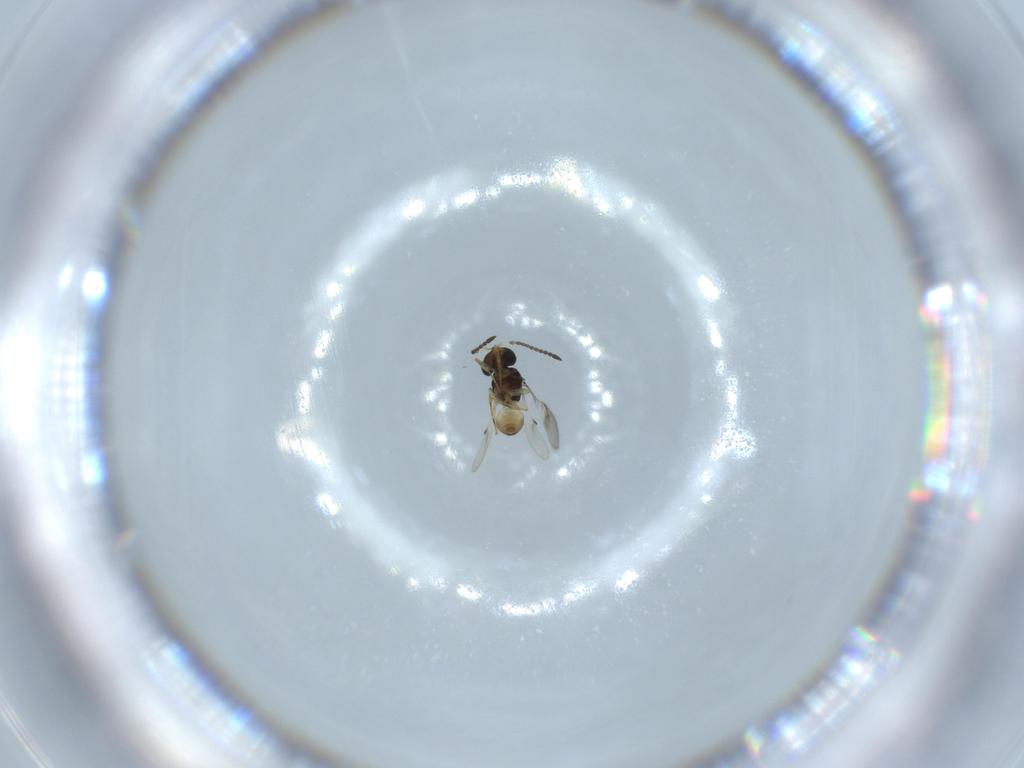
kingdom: Animalia
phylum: Arthropoda
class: Insecta
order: Hymenoptera
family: Scelionidae
